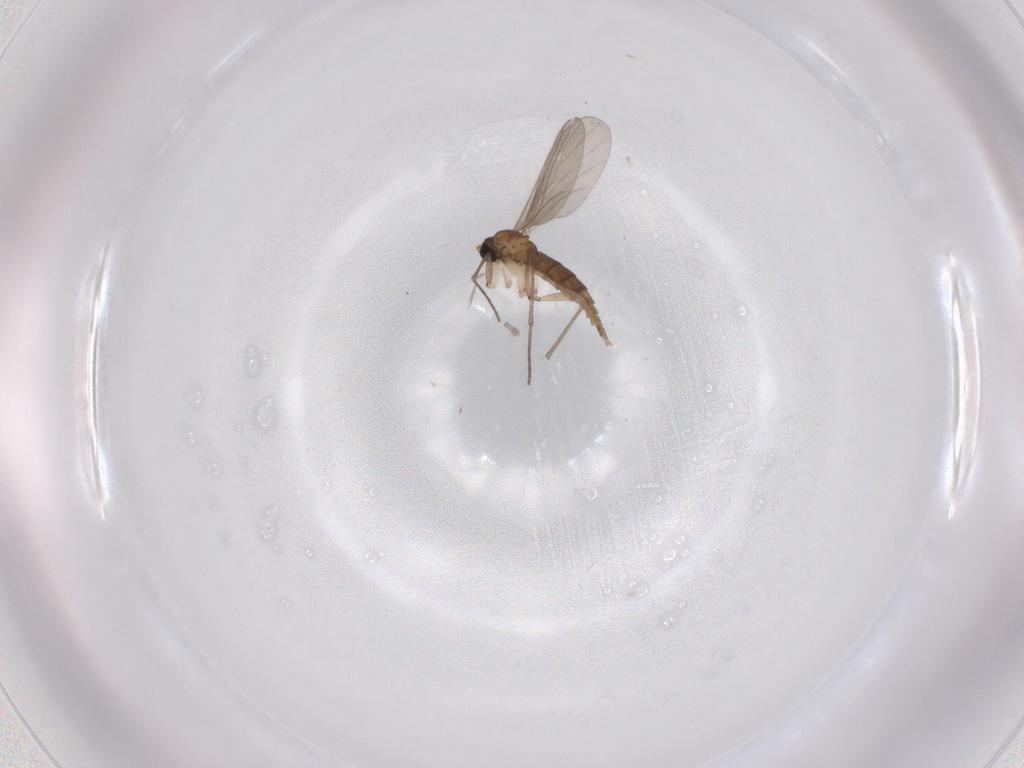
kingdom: Animalia
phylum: Arthropoda
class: Insecta
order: Diptera
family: Sciaridae
